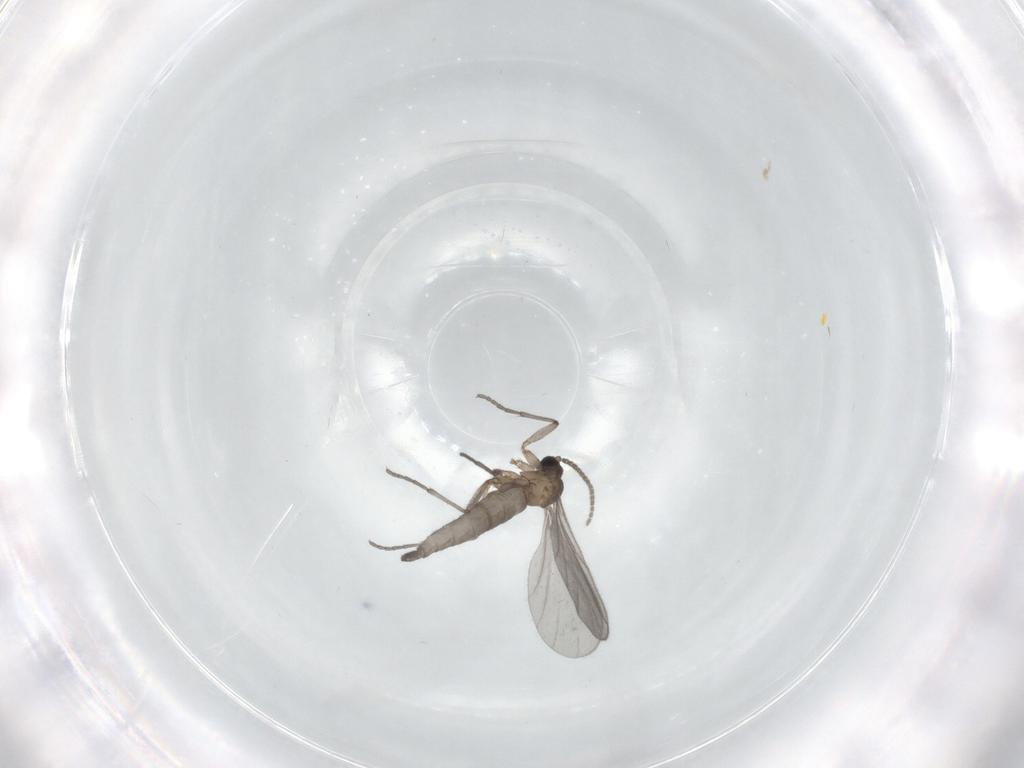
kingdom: Animalia
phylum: Arthropoda
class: Insecta
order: Diptera
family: Sciaridae
